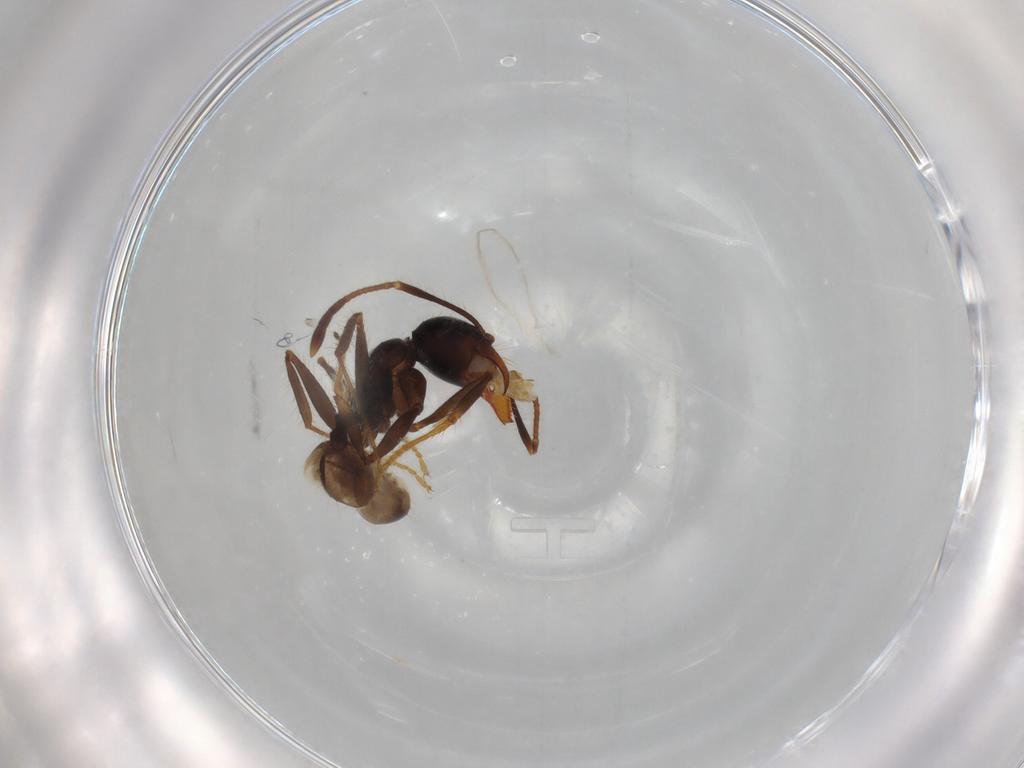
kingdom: Animalia
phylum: Arthropoda
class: Insecta
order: Hymenoptera
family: Formicidae
